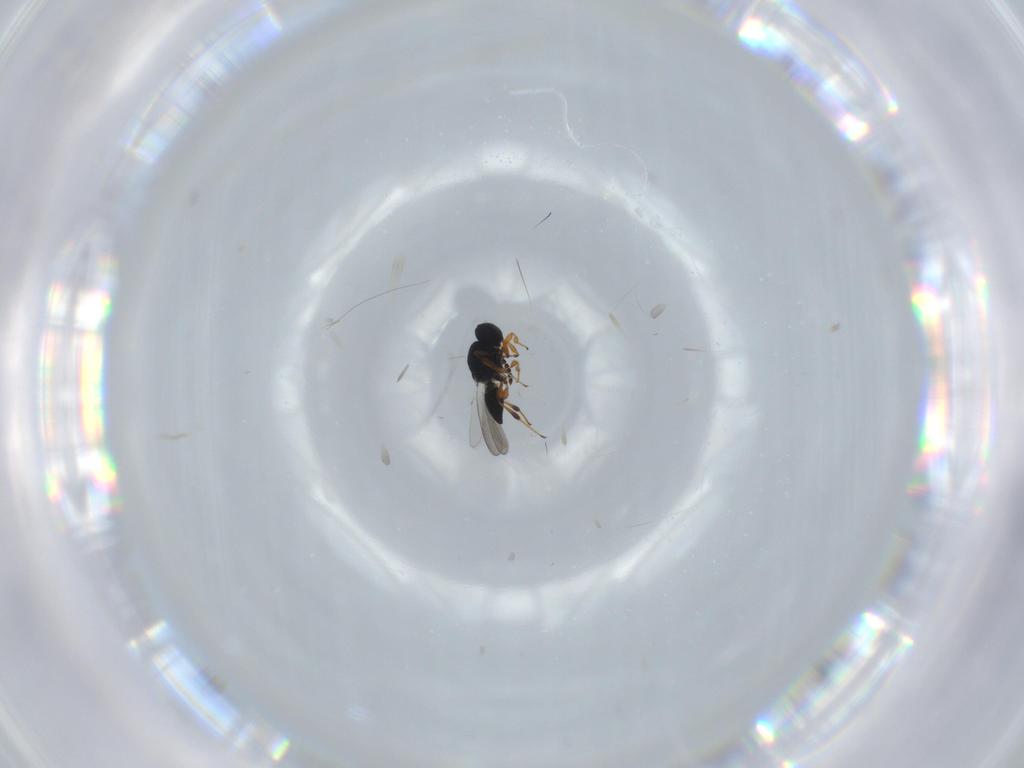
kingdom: Animalia
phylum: Arthropoda
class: Insecta
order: Hymenoptera
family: Platygastridae
